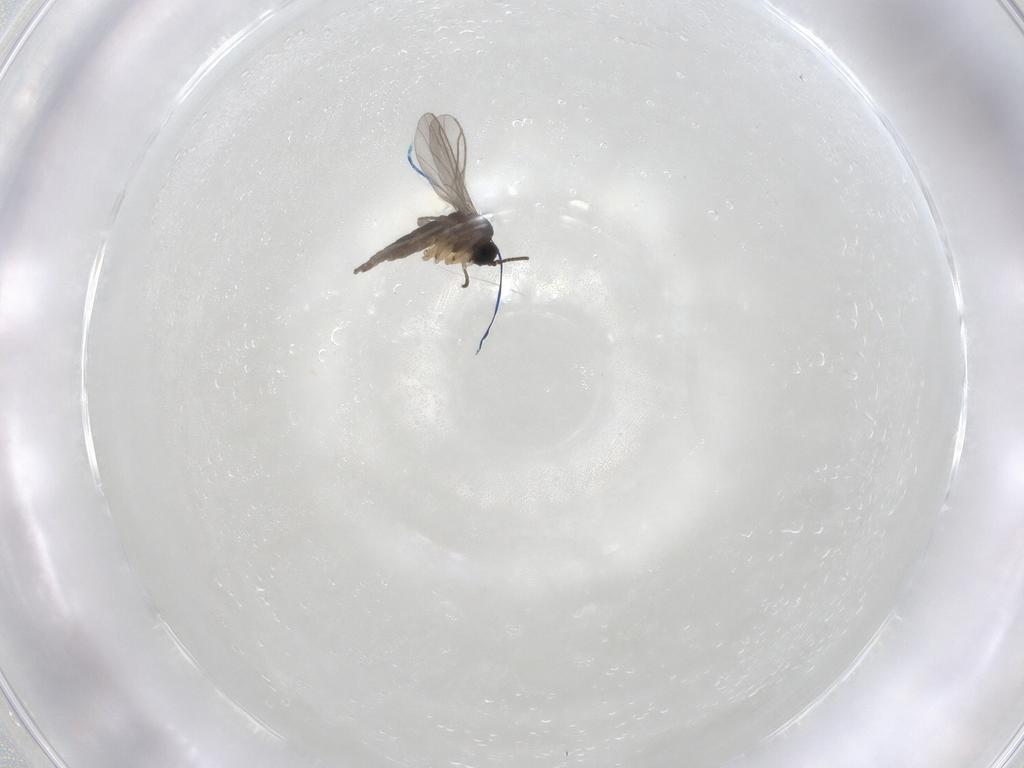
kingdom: Animalia
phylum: Arthropoda
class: Insecta
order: Diptera
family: Sciaridae
